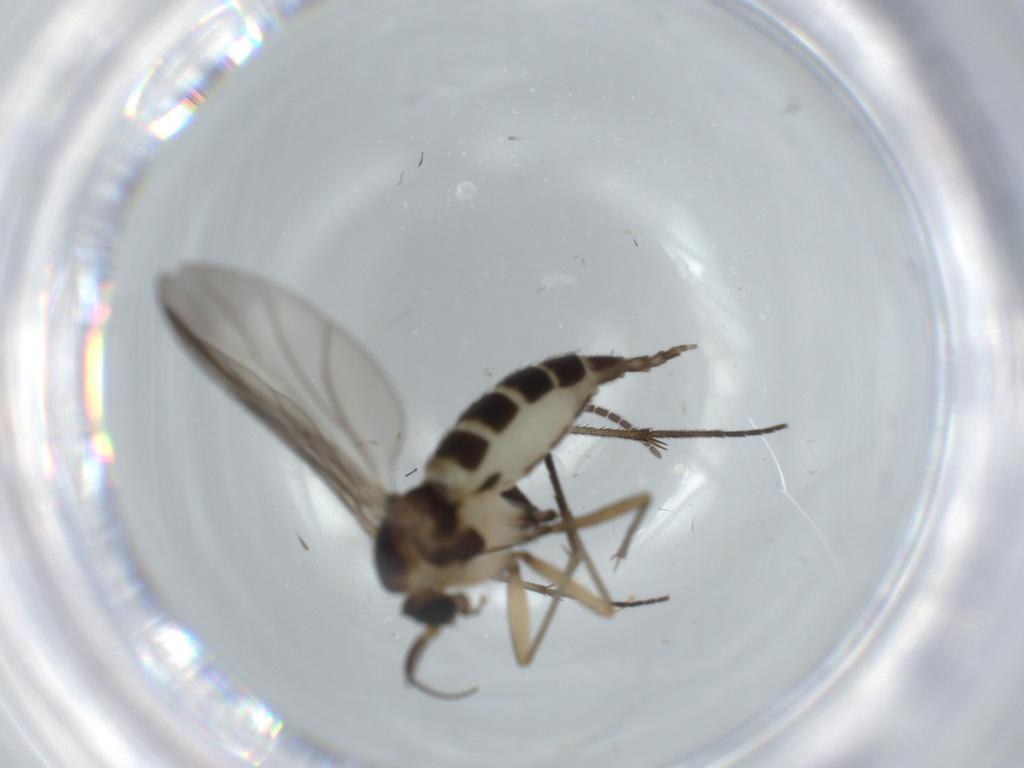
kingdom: Animalia
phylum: Arthropoda
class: Insecta
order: Diptera
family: Sciaridae
